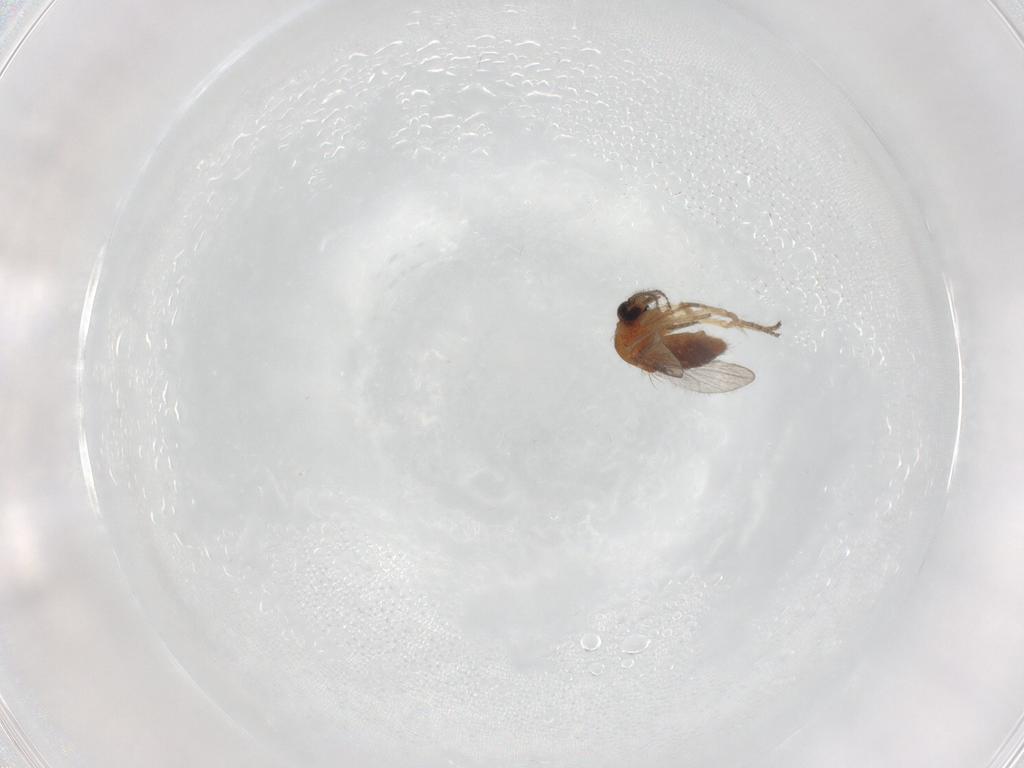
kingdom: Animalia
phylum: Arthropoda
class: Insecta
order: Diptera
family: Ceratopogonidae
